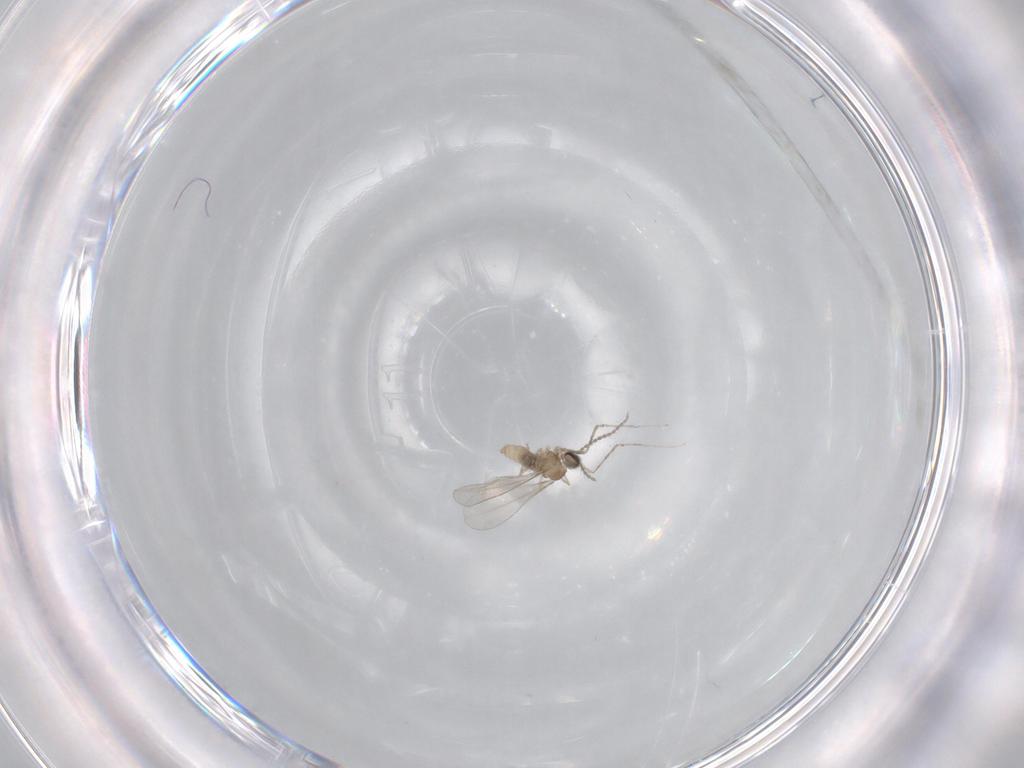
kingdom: Animalia
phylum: Arthropoda
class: Insecta
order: Diptera
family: Cecidomyiidae
